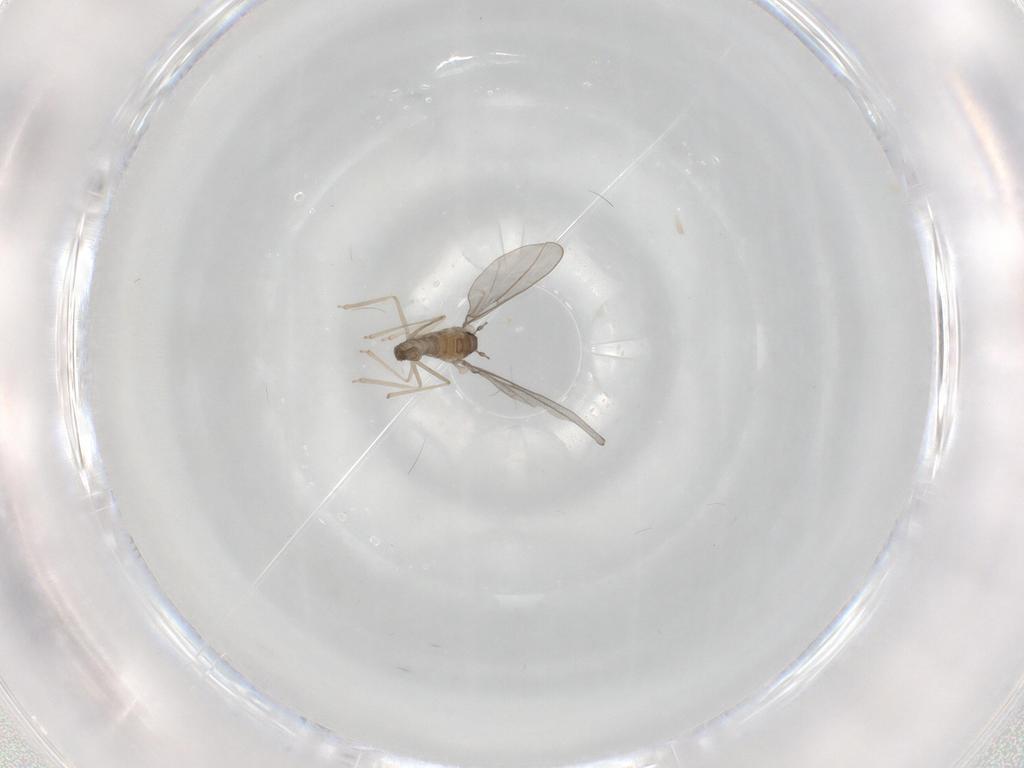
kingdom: Animalia
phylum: Arthropoda
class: Insecta
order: Diptera
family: Cecidomyiidae
